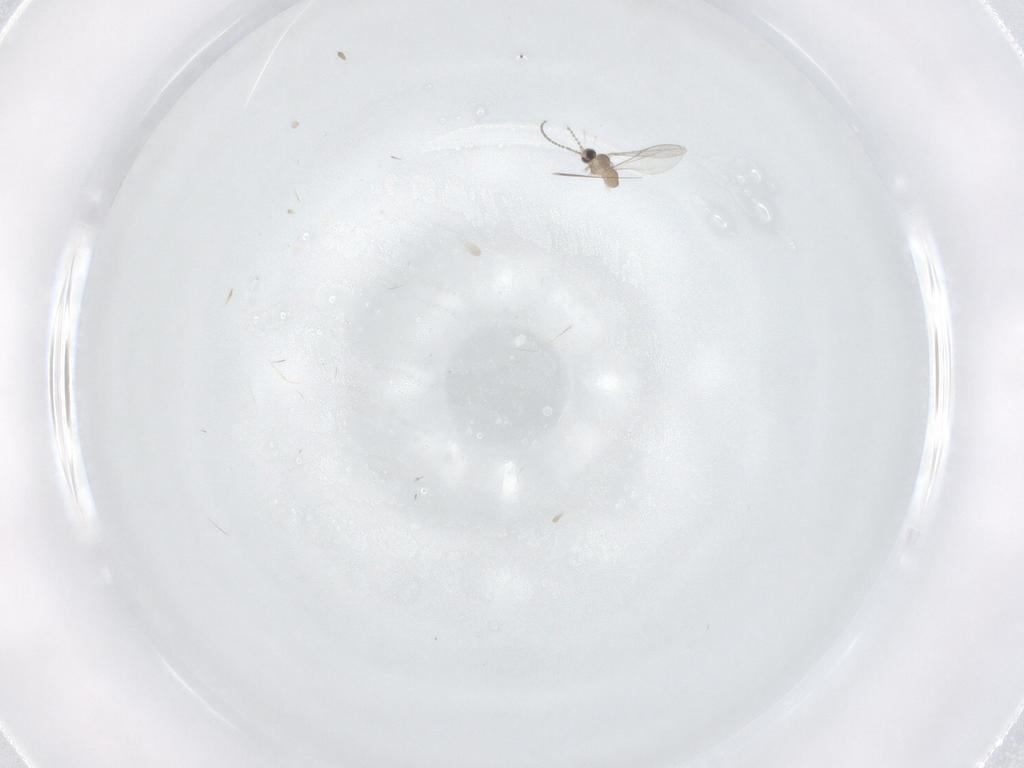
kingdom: Animalia
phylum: Arthropoda
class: Insecta
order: Diptera
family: Cecidomyiidae
